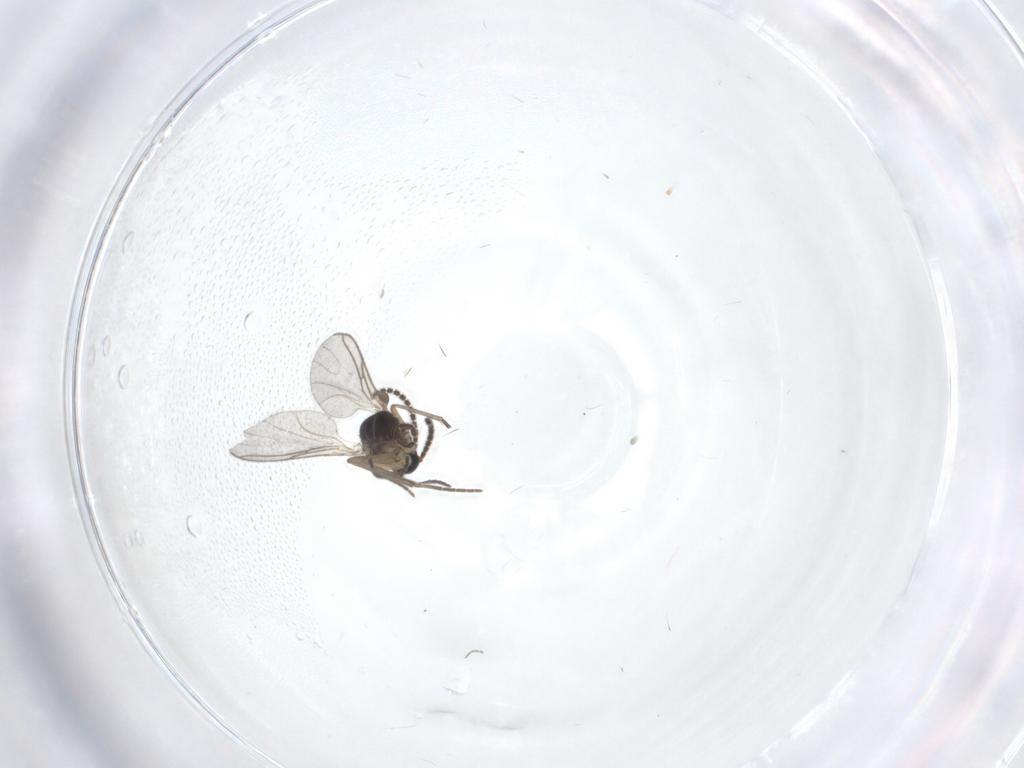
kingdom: Animalia
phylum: Arthropoda
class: Insecta
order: Diptera
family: Sciaridae
